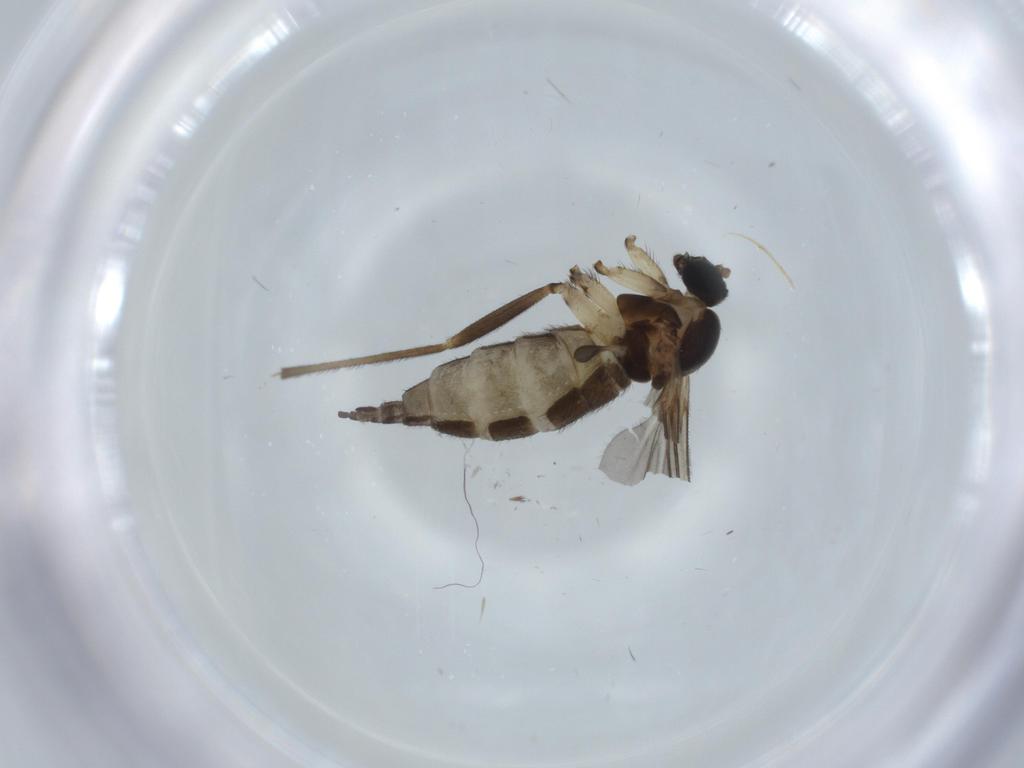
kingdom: Animalia
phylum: Arthropoda
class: Insecta
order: Diptera
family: Sciaridae
